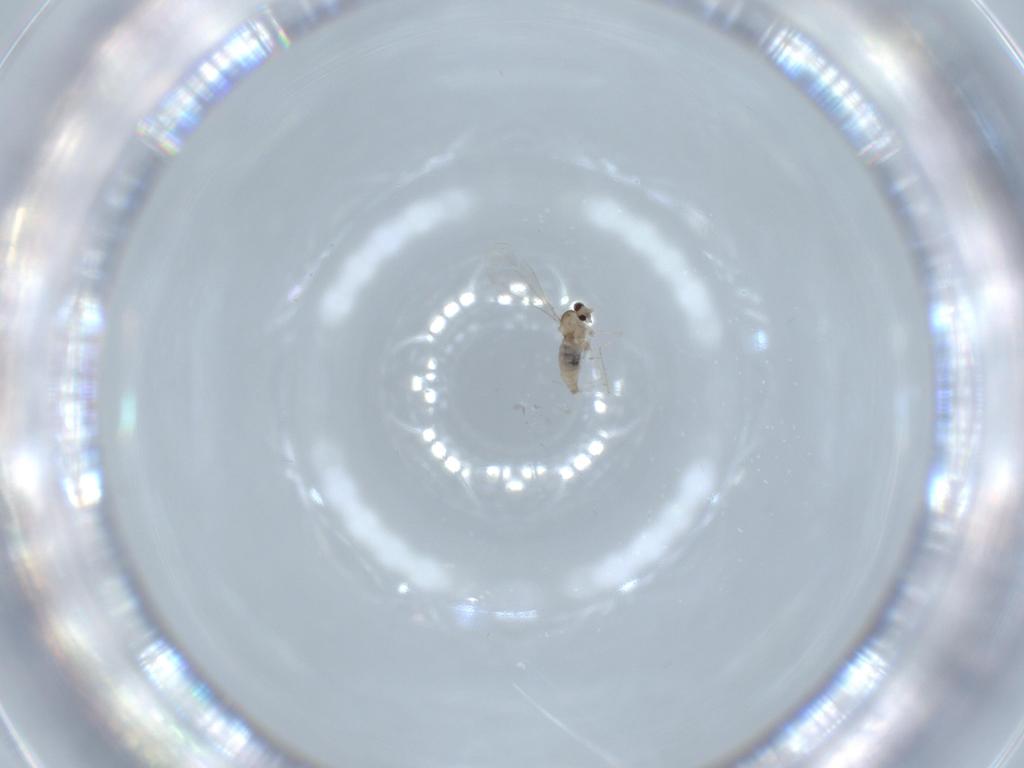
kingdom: Animalia
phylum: Arthropoda
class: Insecta
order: Diptera
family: Cecidomyiidae
